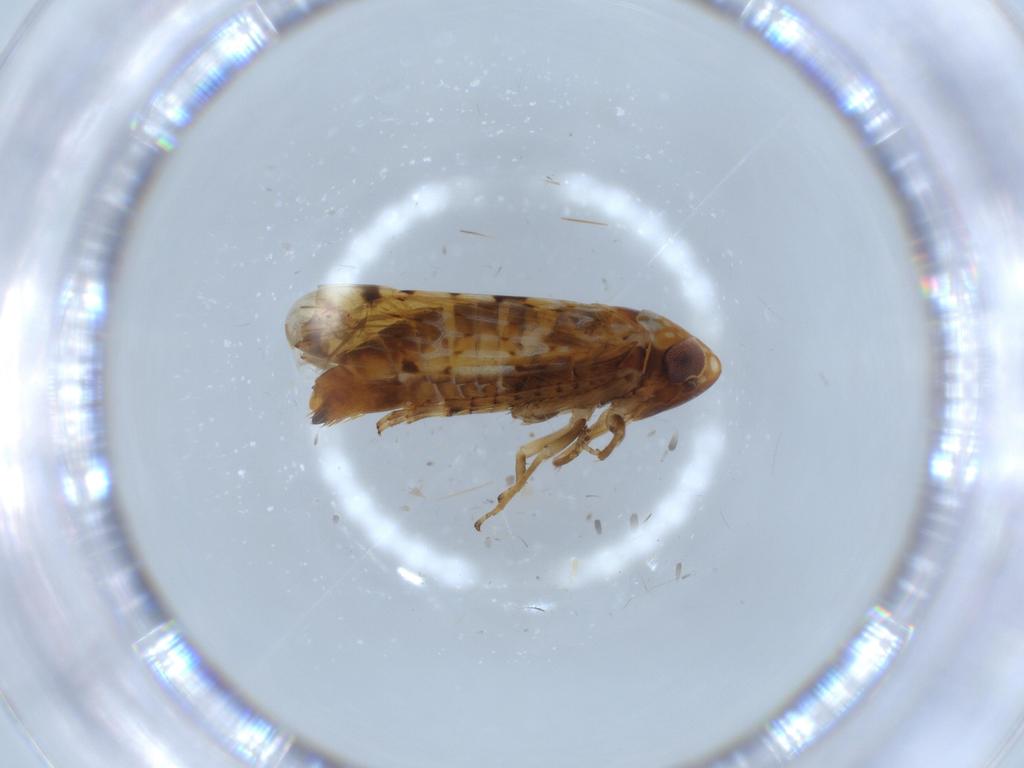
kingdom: Animalia
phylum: Arthropoda
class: Insecta
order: Hemiptera
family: Cicadellidae
